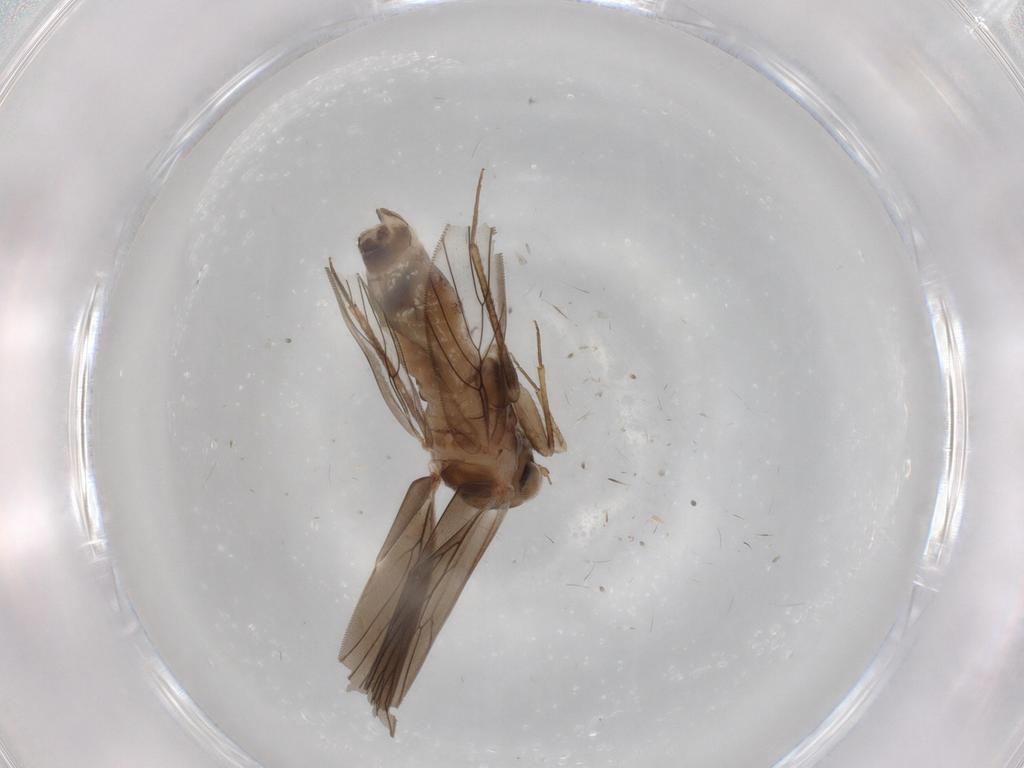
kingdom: Animalia
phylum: Arthropoda
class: Insecta
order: Psocodea
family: Lepidopsocidae
